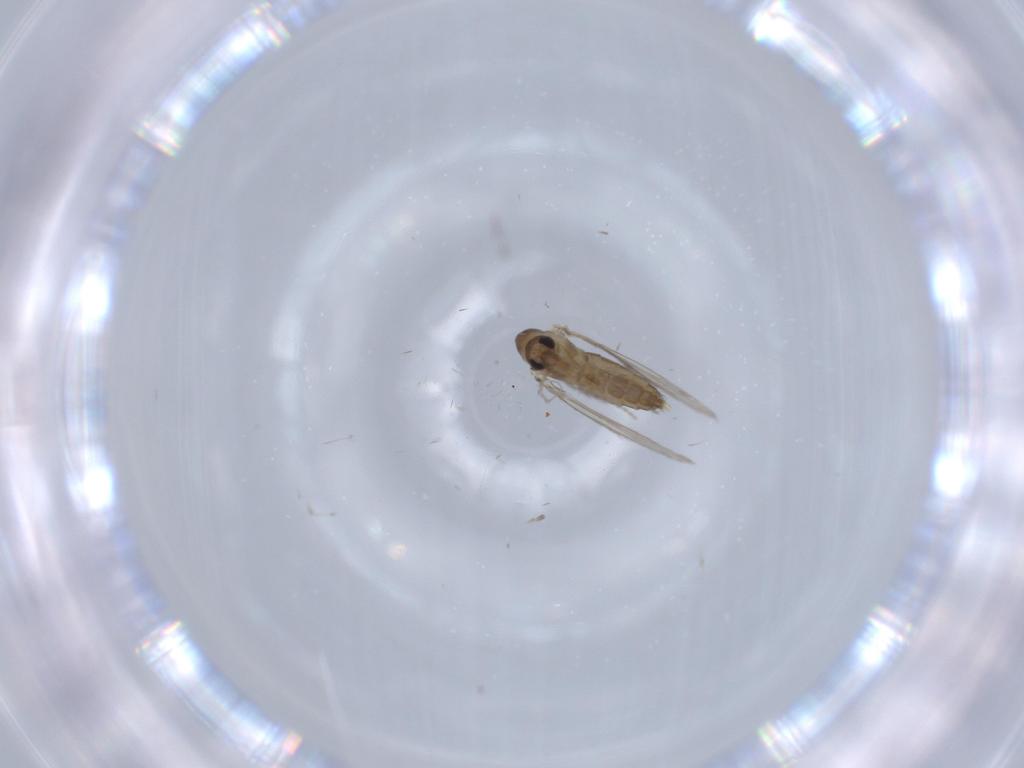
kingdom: Animalia
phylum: Arthropoda
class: Insecta
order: Diptera
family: Psychodidae
